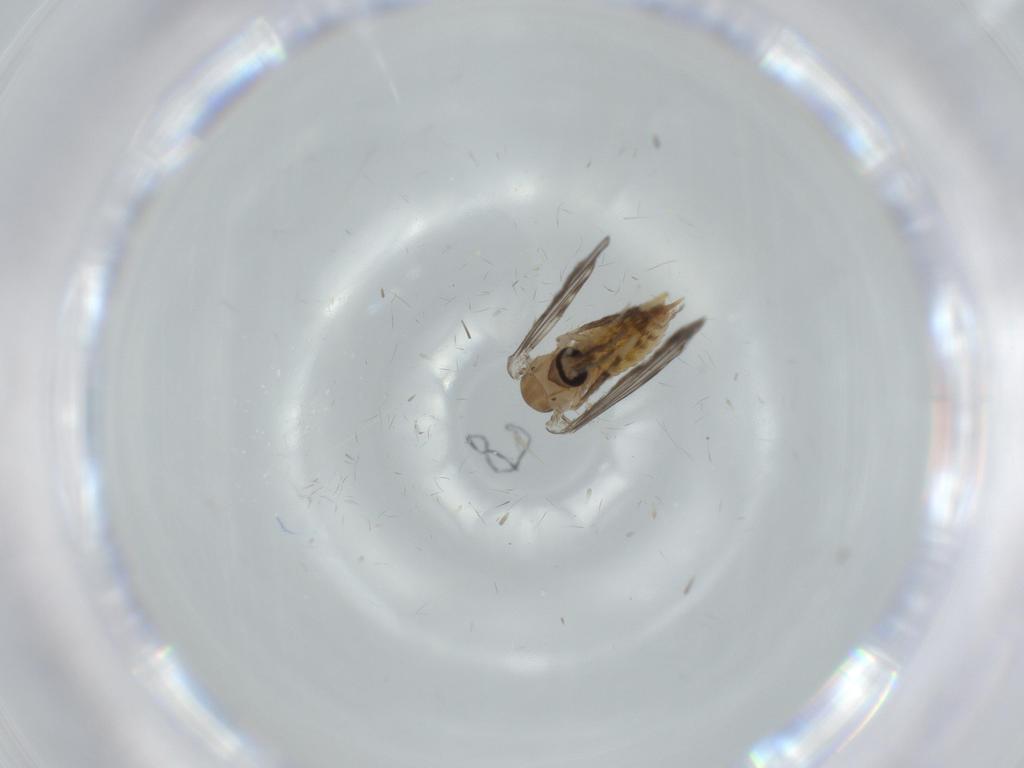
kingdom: Animalia
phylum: Arthropoda
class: Insecta
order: Diptera
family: Psychodidae
